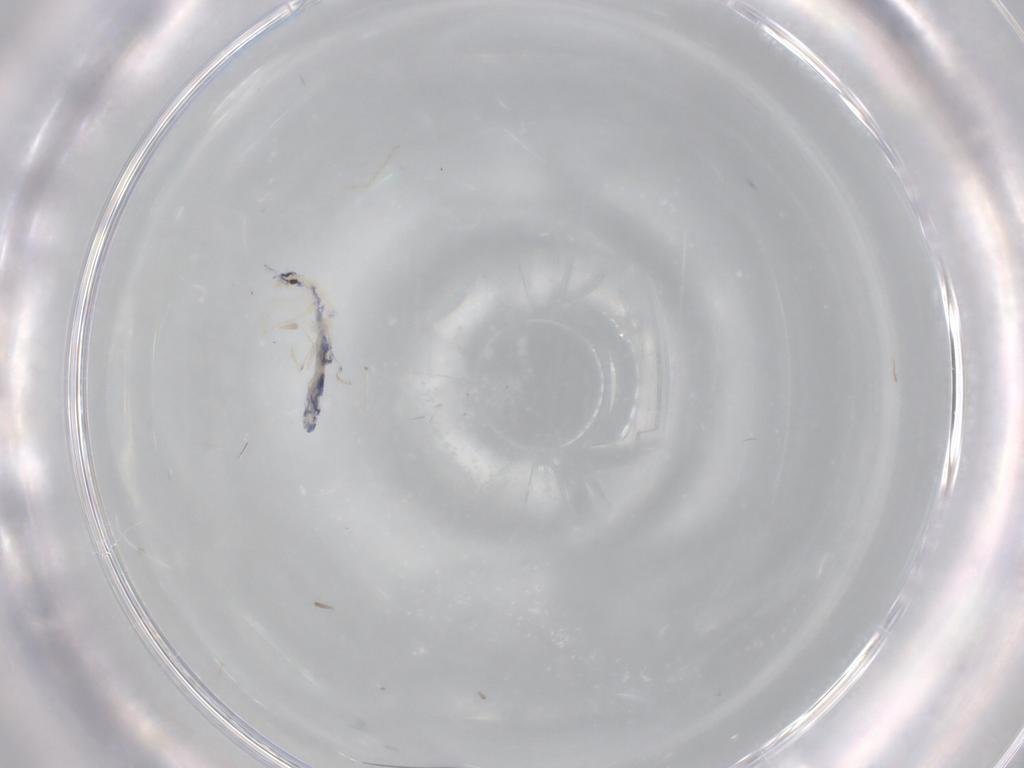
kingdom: Animalia
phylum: Arthropoda
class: Collembola
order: Entomobryomorpha
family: Entomobryidae
